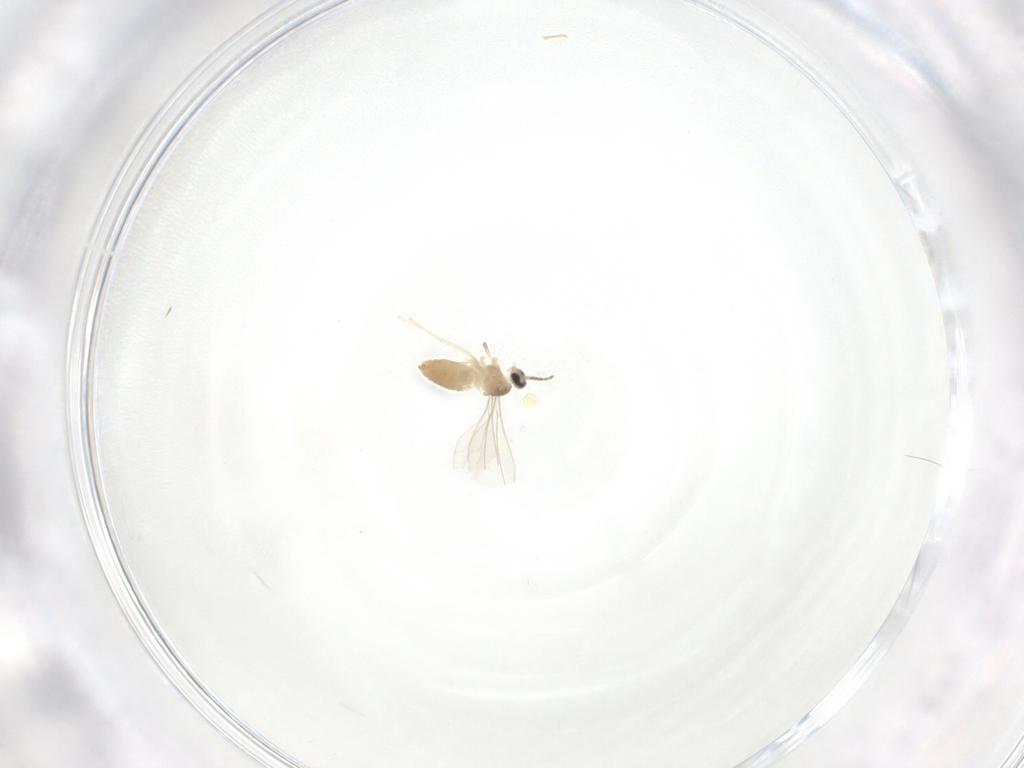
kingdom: Animalia
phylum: Arthropoda
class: Insecta
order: Diptera
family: Cecidomyiidae
